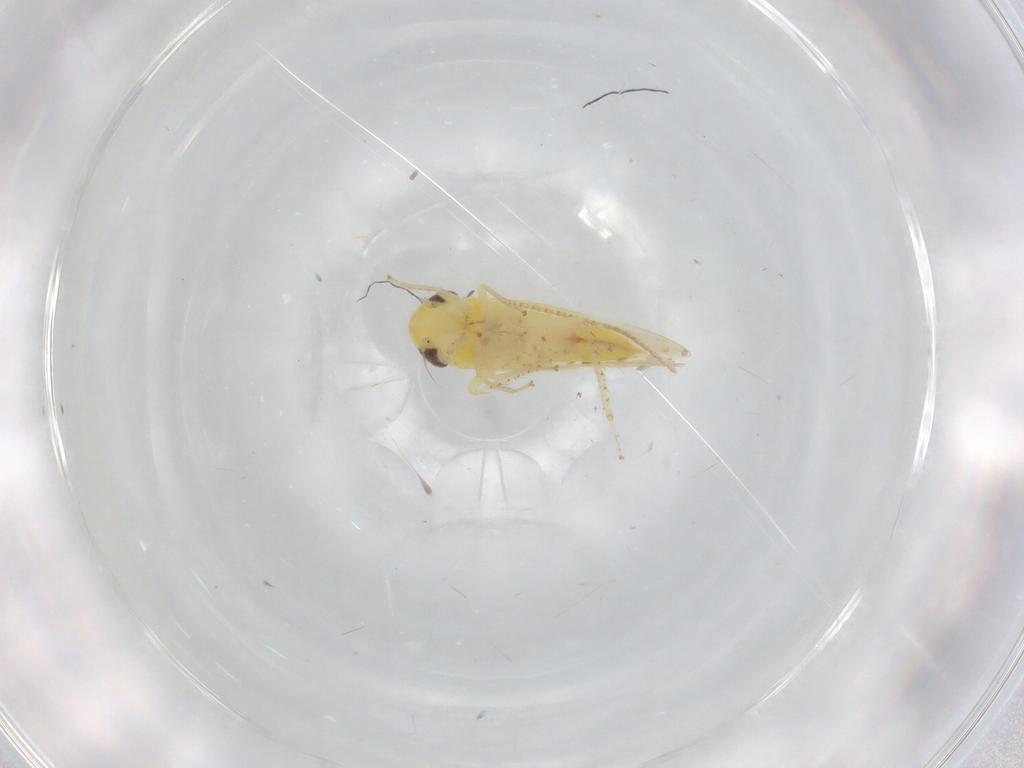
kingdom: Animalia
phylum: Arthropoda
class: Insecta
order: Hemiptera
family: Cicadellidae
